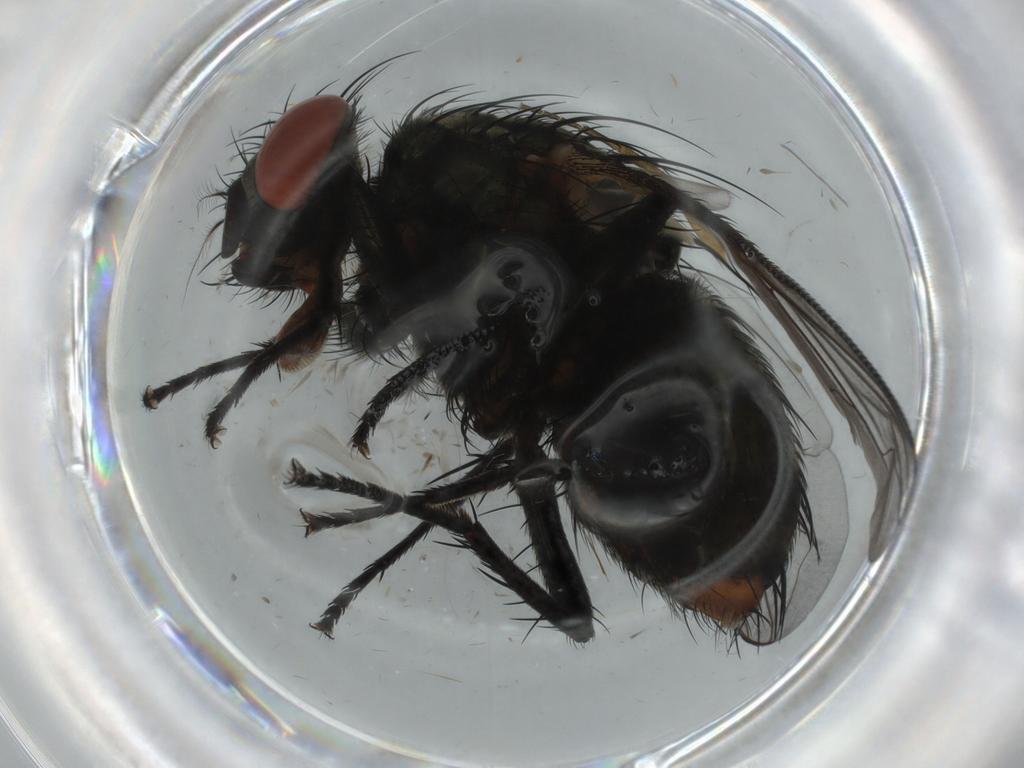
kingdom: Animalia
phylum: Arthropoda
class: Insecta
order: Diptera
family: Sarcophagidae
